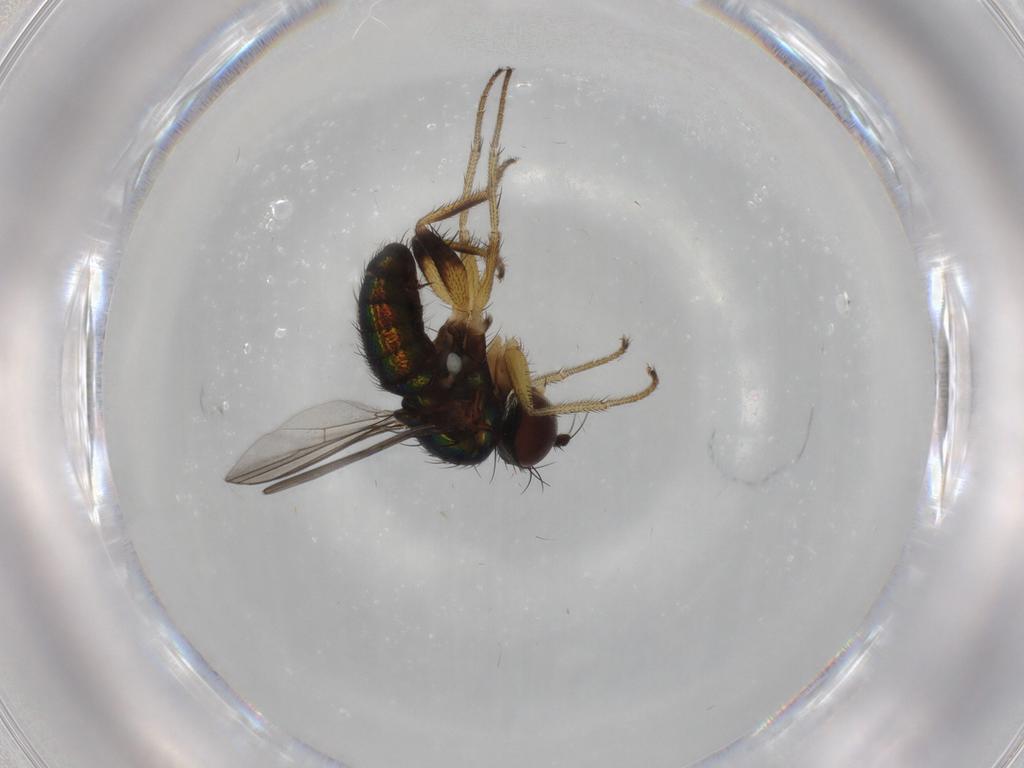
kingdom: Animalia
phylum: Arthropoda
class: Insecta
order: Diptera
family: Dolichopodidae
